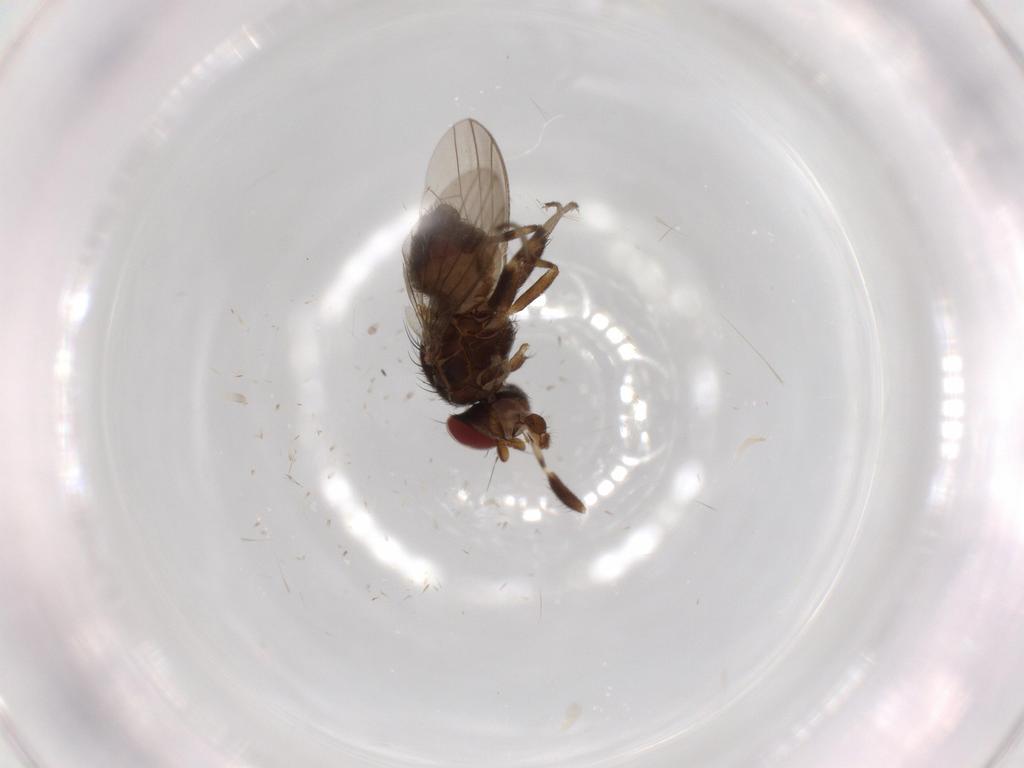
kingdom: Animalia
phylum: Arthropoda
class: Insecta
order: Diptera
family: Heleomyzidae
